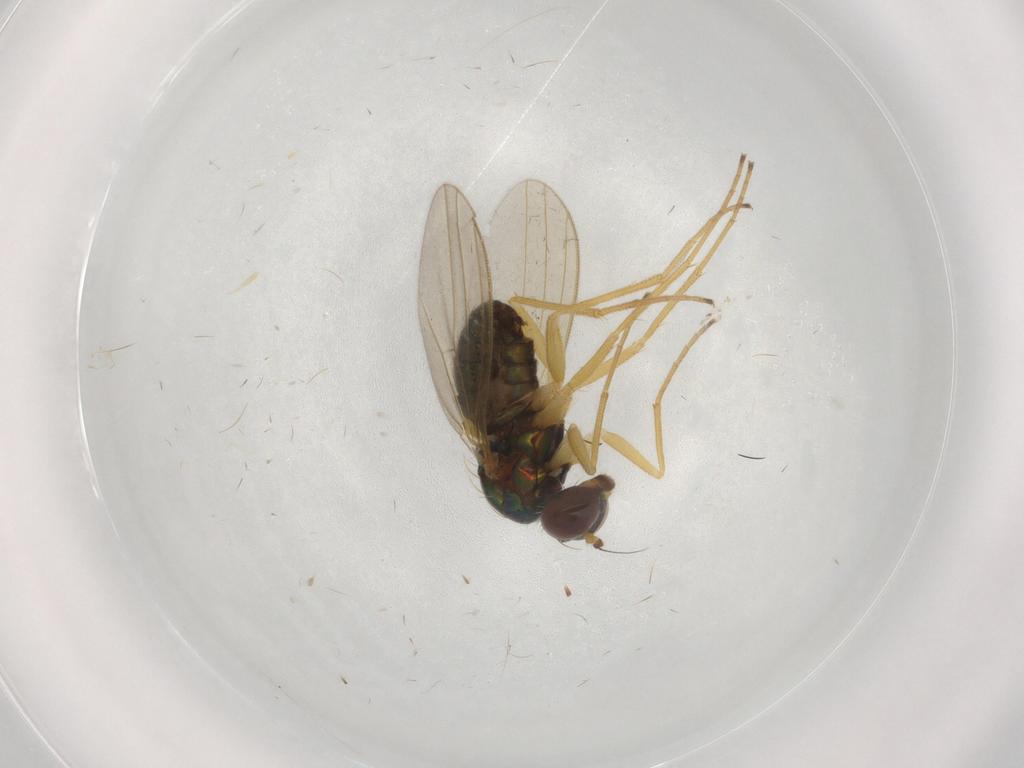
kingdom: Animalia
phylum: Arthropoda
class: Insecta
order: Diptera
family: Dolichopodidae
